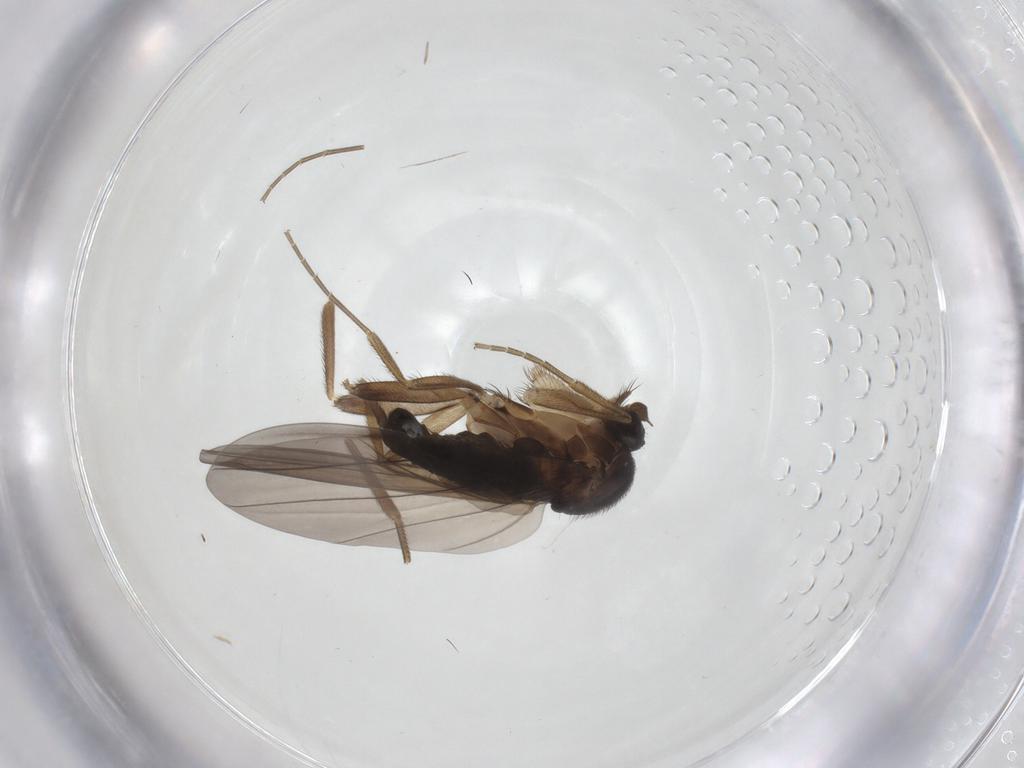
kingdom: Animalia
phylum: Arthropoda
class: Insecta
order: Diptera
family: Phoridae
